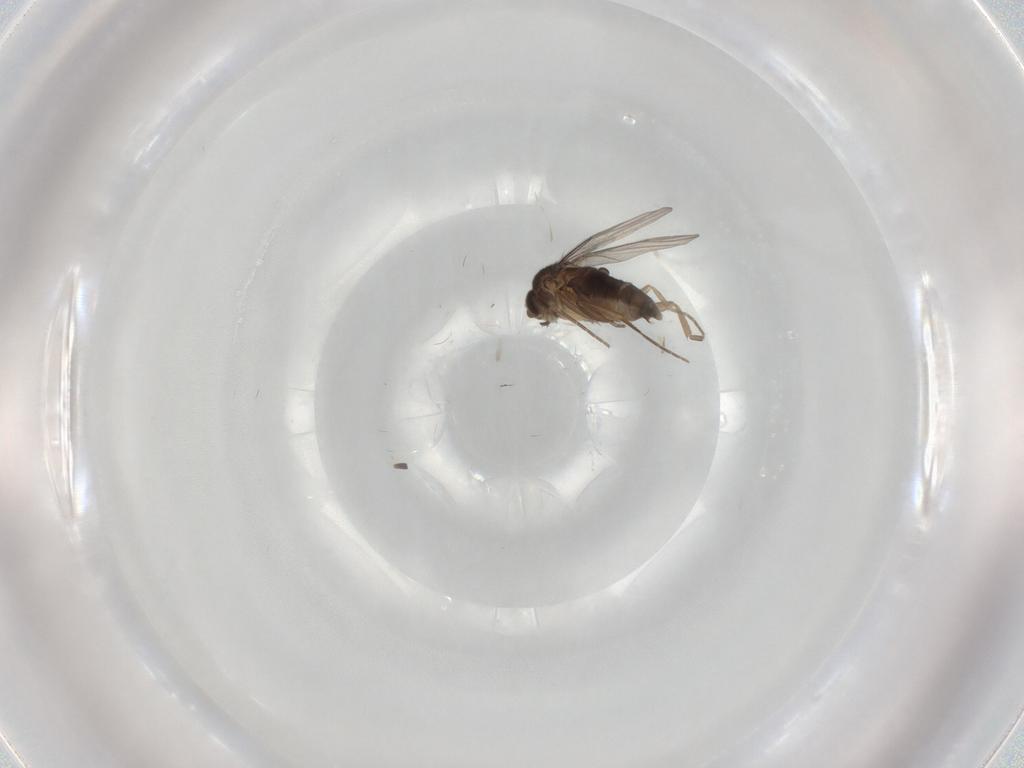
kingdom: Animalia
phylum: Arthropoda
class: Insecta
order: Diptera
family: Phoridae
